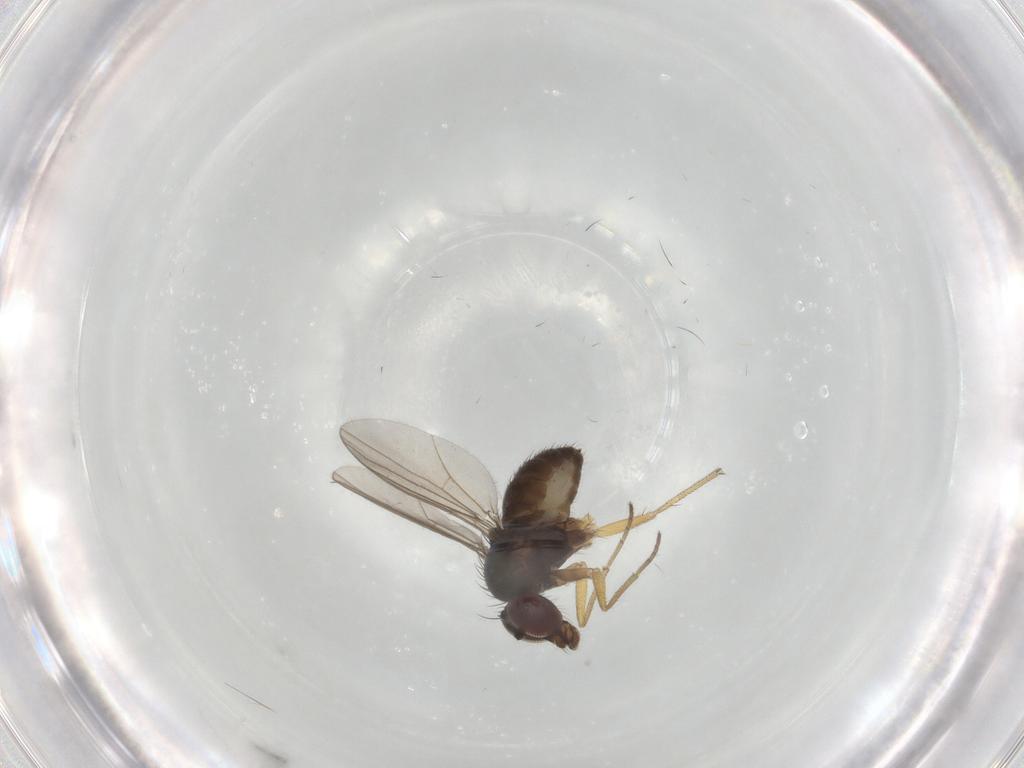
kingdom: Animalia
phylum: Arthropoda
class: Insecta
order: Diptera
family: Dolichopodidae
